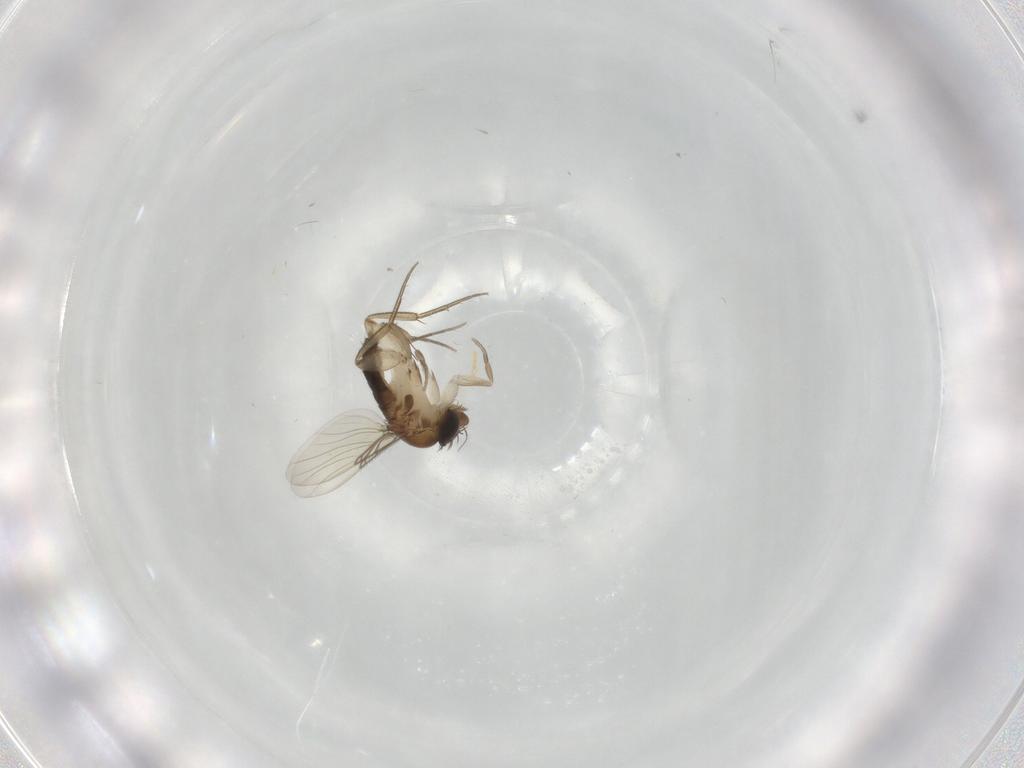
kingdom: Animalia
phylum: Arthropoda
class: Insecta
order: Diptera
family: Phoridae
